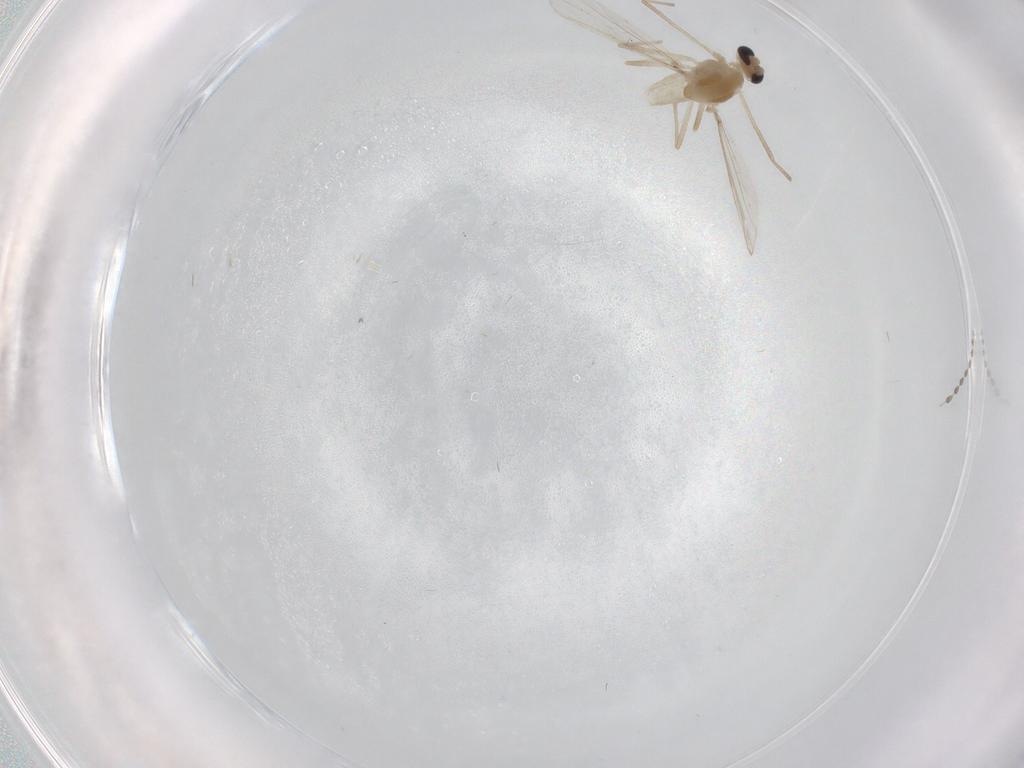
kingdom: Animalia
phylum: Arthropoda
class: Insecta
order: Diptera
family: Chironomidae
